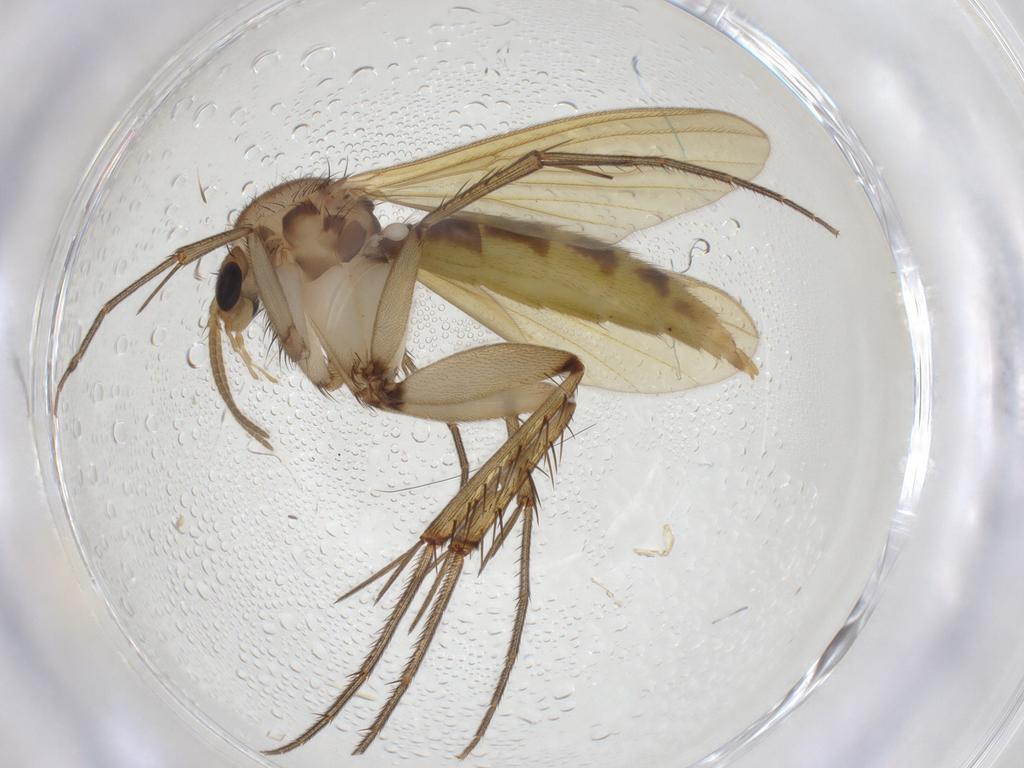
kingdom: Animalia
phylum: Arthropoda
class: Insecta
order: Diptera
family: Mycetophilidae
